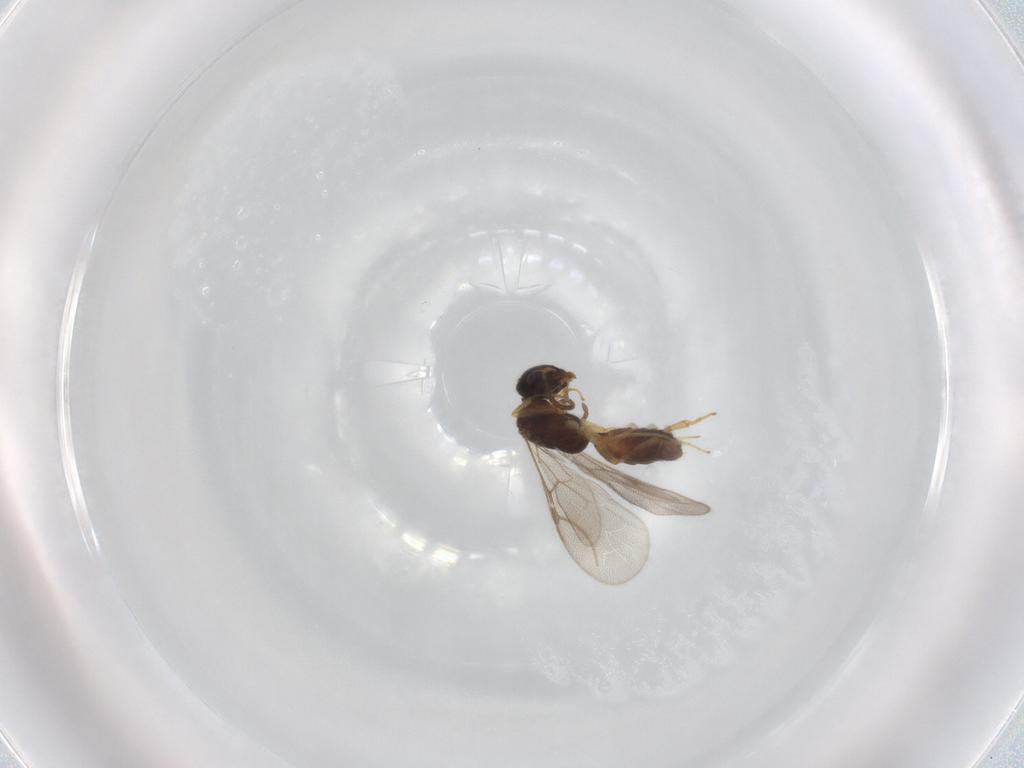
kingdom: Animalia
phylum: Arthropoda
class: Insecta
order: Hymenoptera
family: Bethylidae
